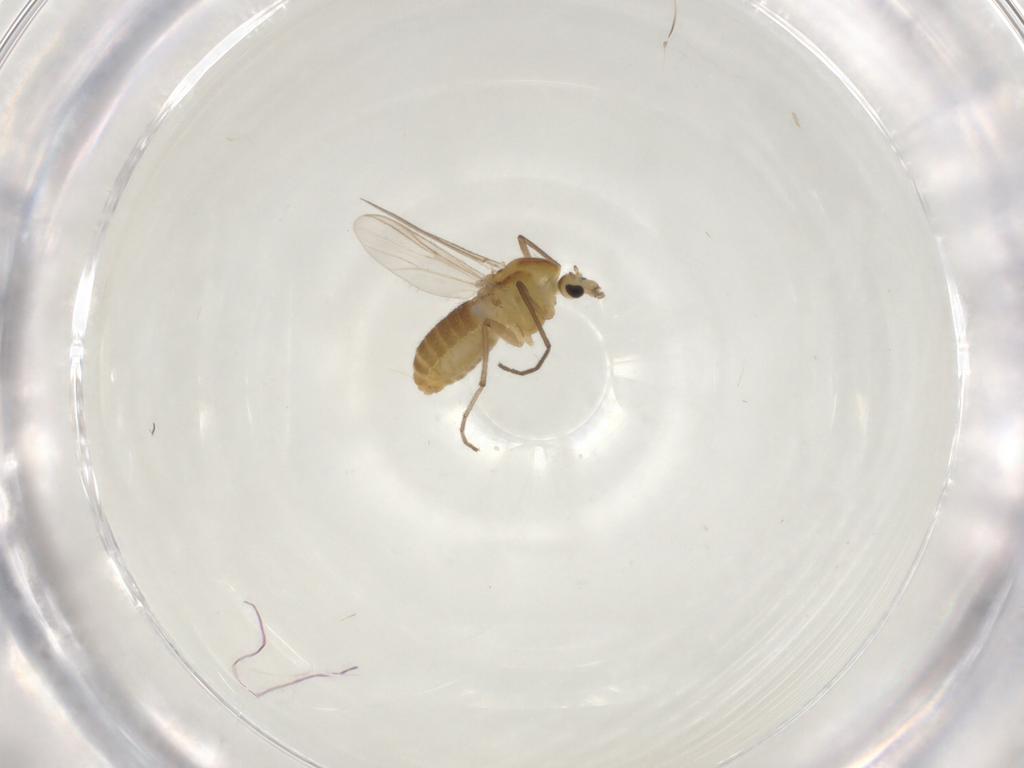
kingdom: Animalia
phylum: Arthropoda
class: Insecta
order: Diptera
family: Chironomidae
